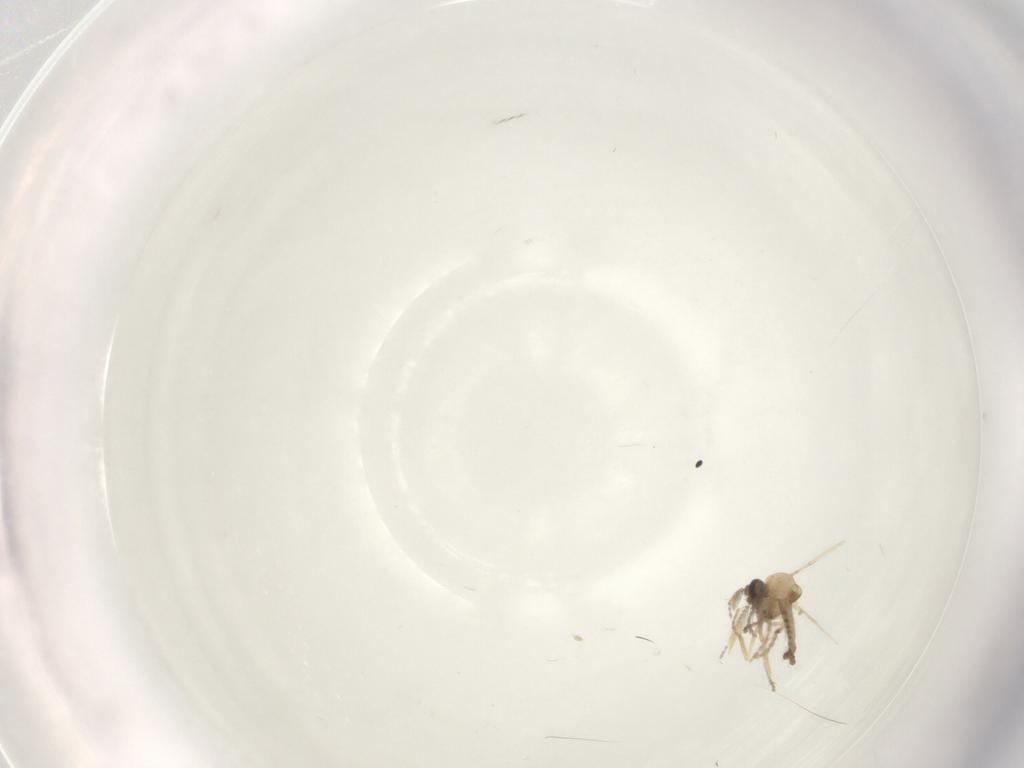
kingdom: Animalia
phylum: Arthropoda
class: Insecta
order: Diptera
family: Ceratopogonidae
